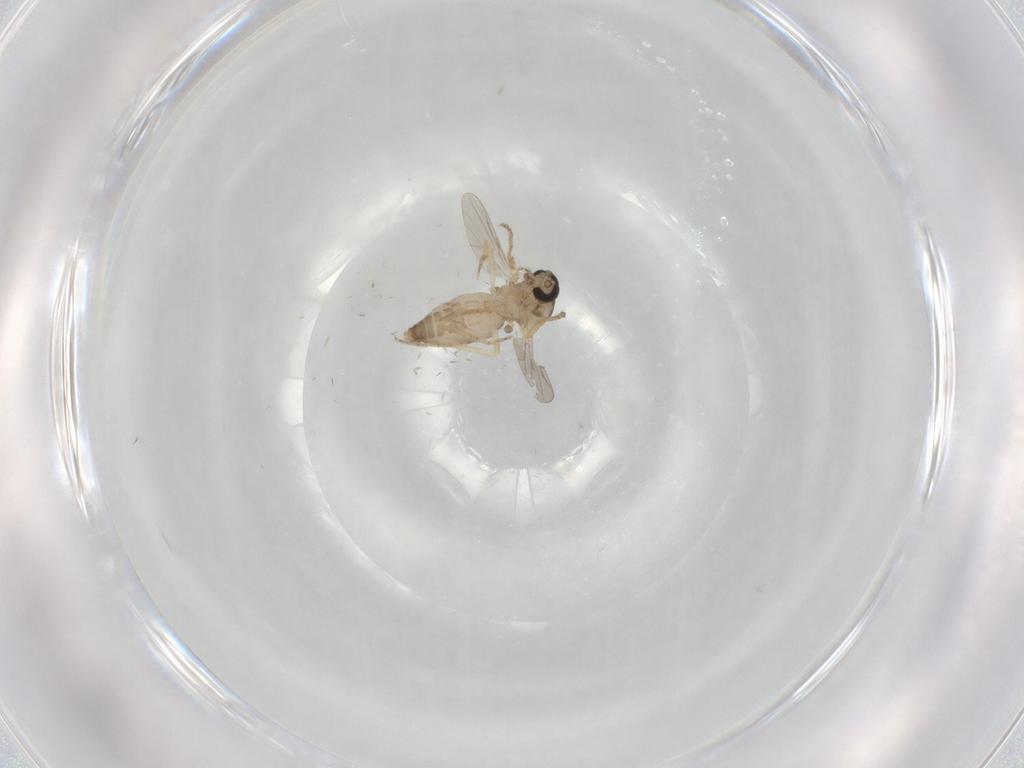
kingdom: Animalia
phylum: Arthropoda
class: Insecta
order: Diptera
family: Ceratopogonidae
